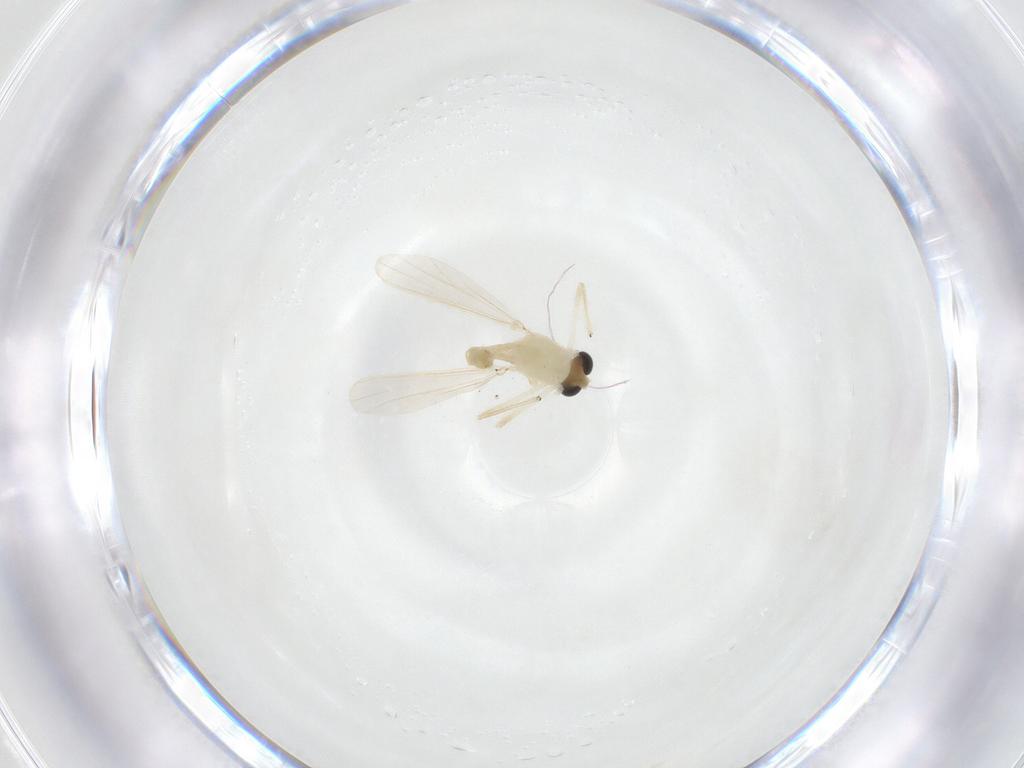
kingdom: Animalia
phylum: Arthropoda
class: Insecta
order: Diptera
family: Chironomidae
